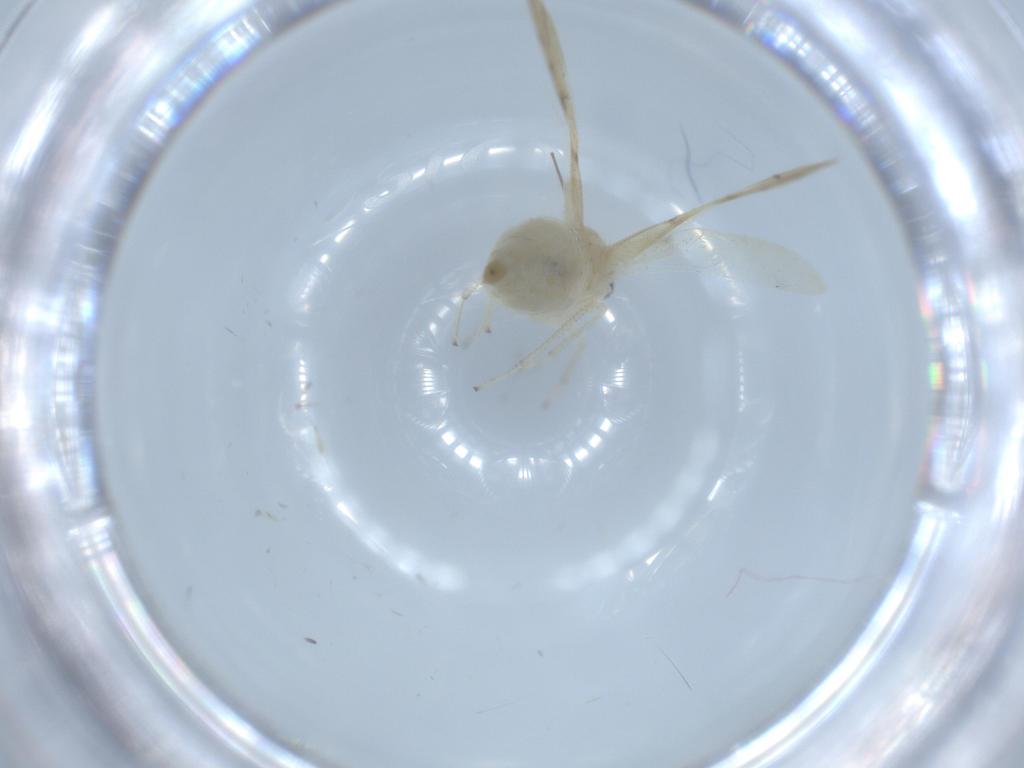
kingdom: Animalia
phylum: Arthropoda
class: Insecta
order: Psocodea
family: Caeciliusidae
